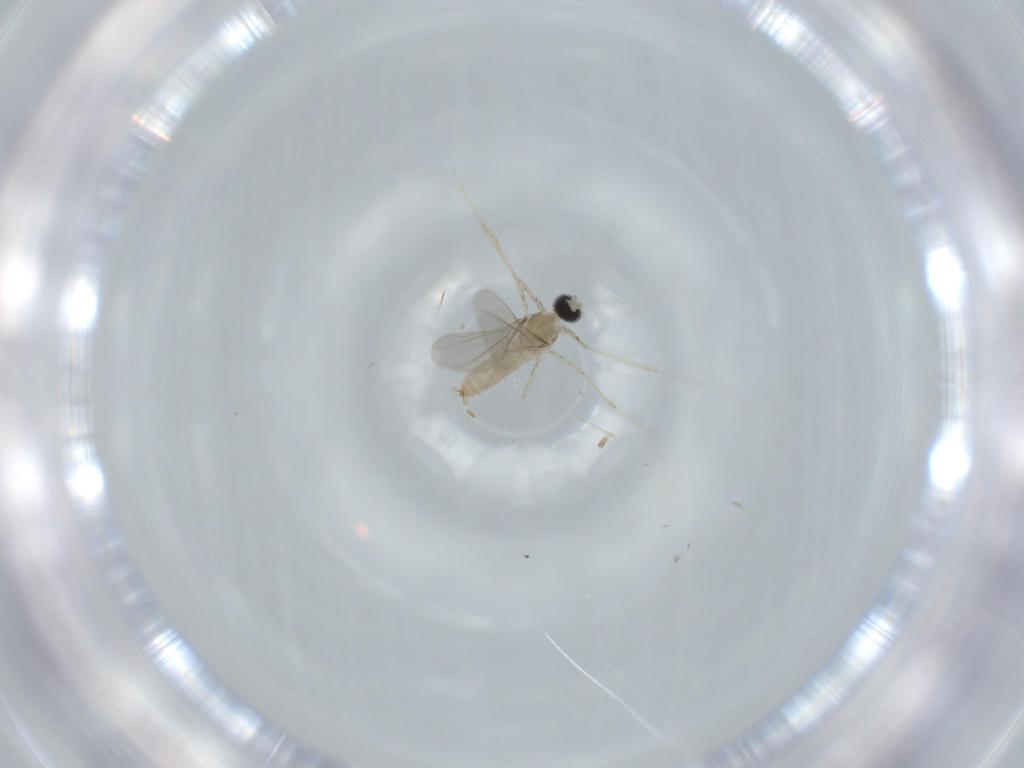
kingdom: Animalia
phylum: Arthropoda
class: Insecta
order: Diptera
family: Cecidomyiidae
